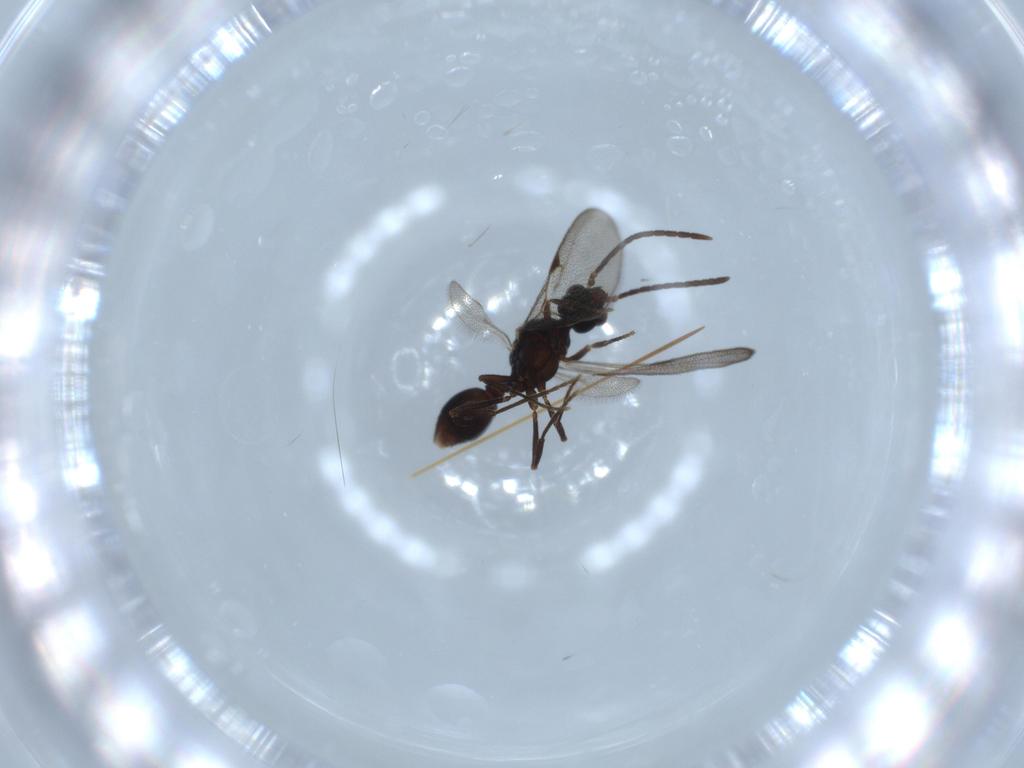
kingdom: Animalia
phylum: Arthropoda
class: Insecta
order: Hymenoptera
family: Formicidae
